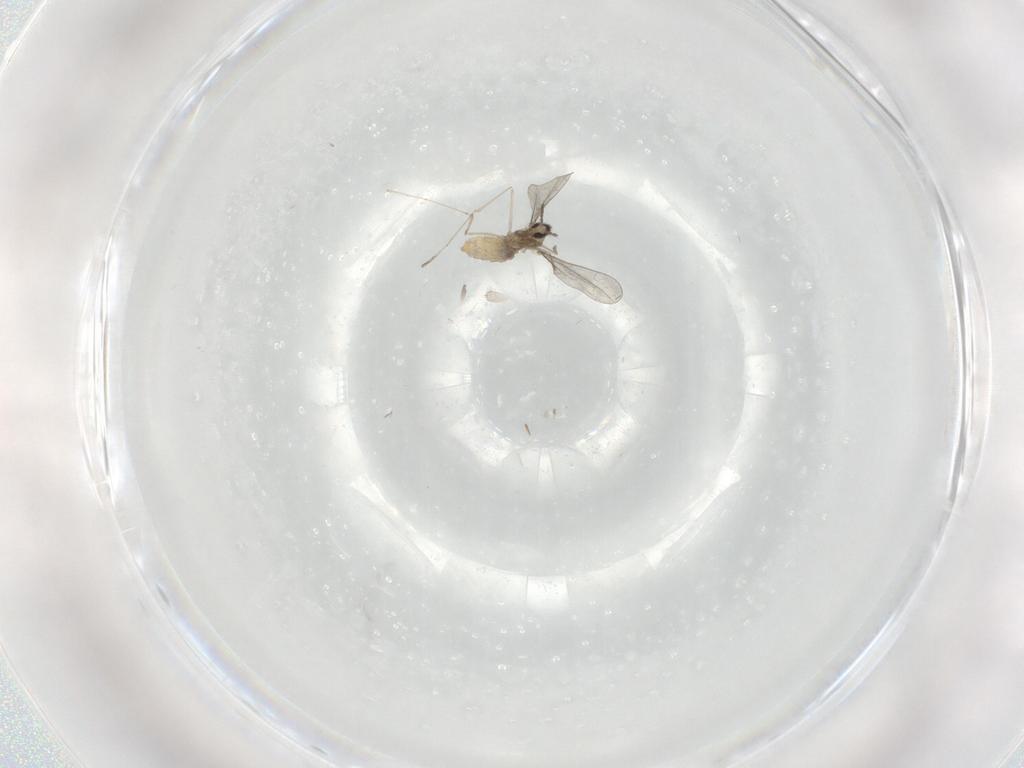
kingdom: Animalia
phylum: Arthropoda
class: Insecta
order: Diptera
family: Cecidomyiidae
